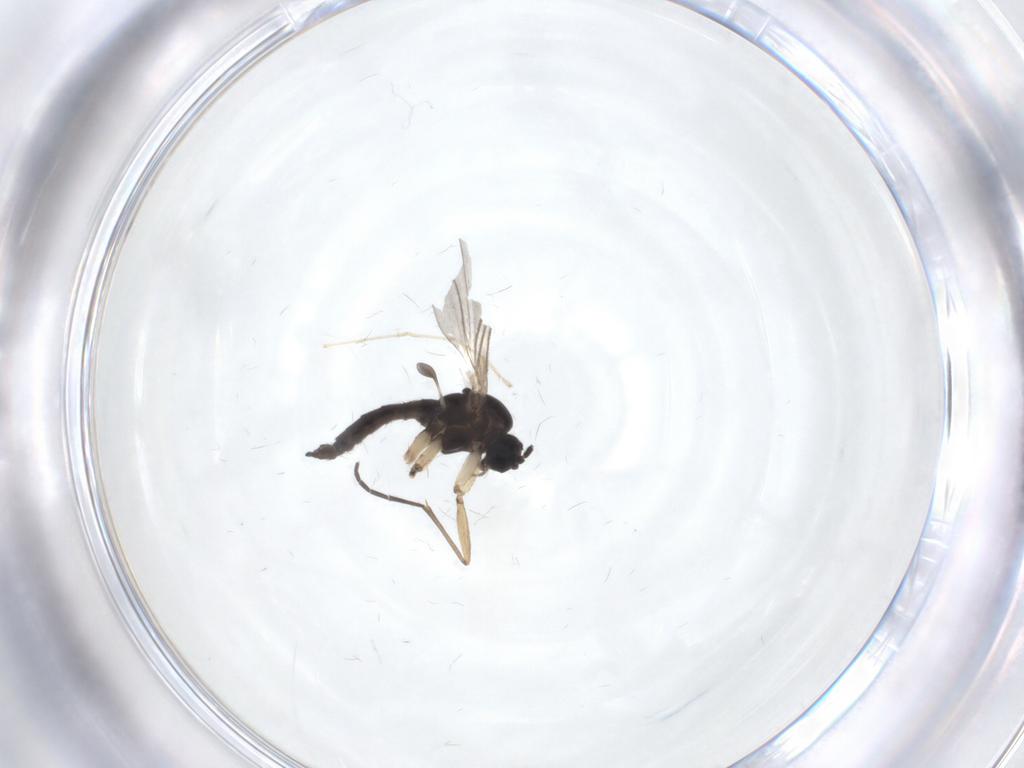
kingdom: Animalia
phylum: Arthropoda
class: Insecta
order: Diptera
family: Sciaridae
